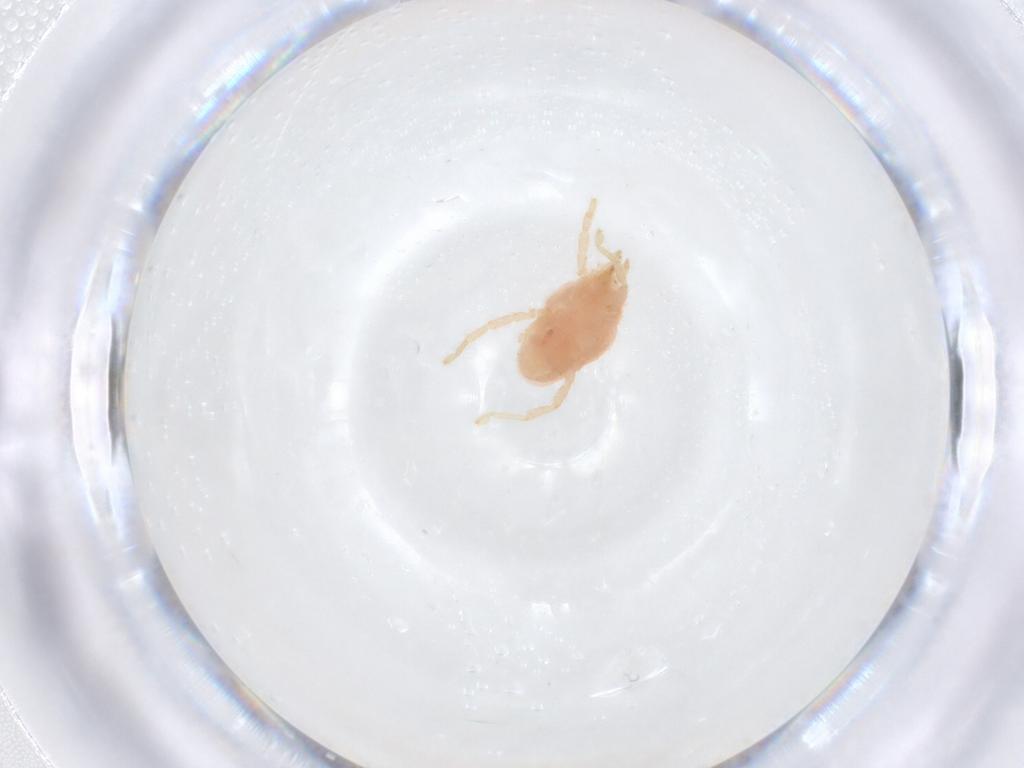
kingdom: Animalia
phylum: Arthropoda
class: Arachnida
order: Trombidiformes
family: Erythraeidae
